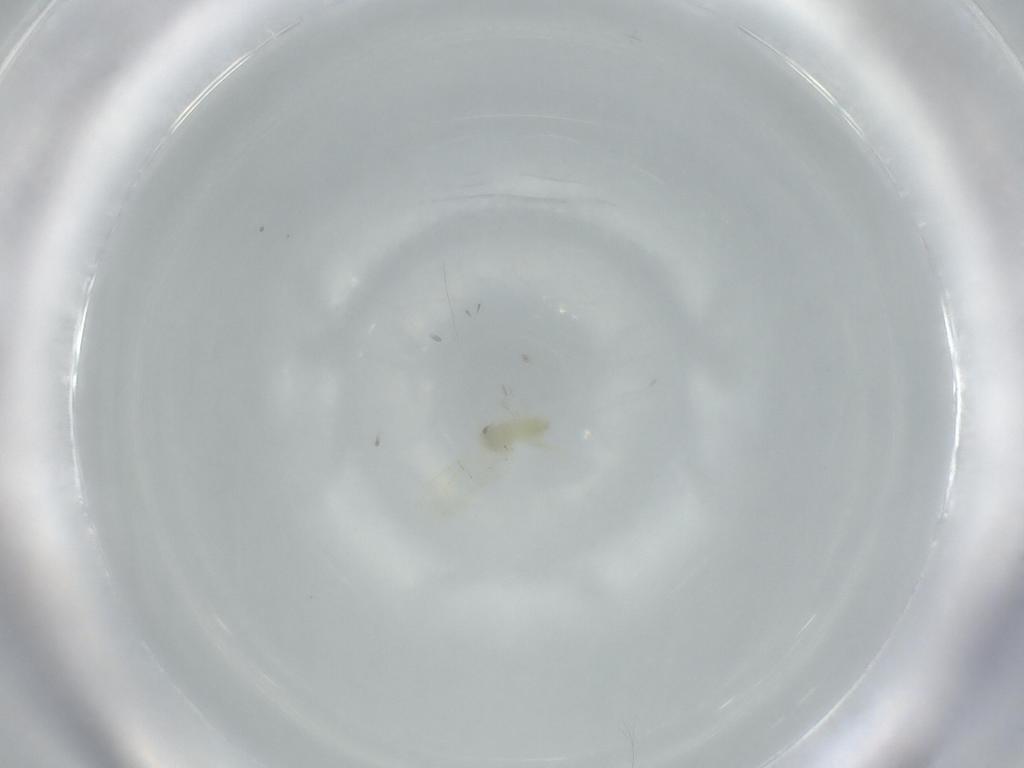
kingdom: Animalia
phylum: Arthropoda
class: Insecta
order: Hemiptera
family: Aleyrodidae
